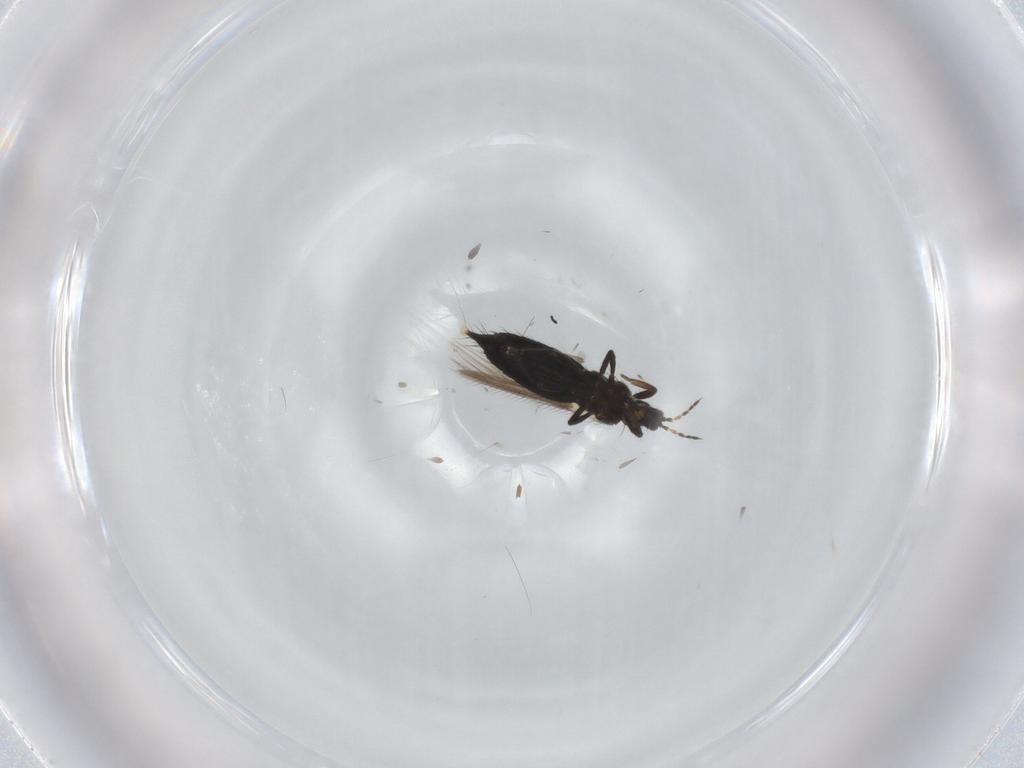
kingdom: Animalia
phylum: Arthropoda
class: Insecta
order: Thysanoptera
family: Thripidae
